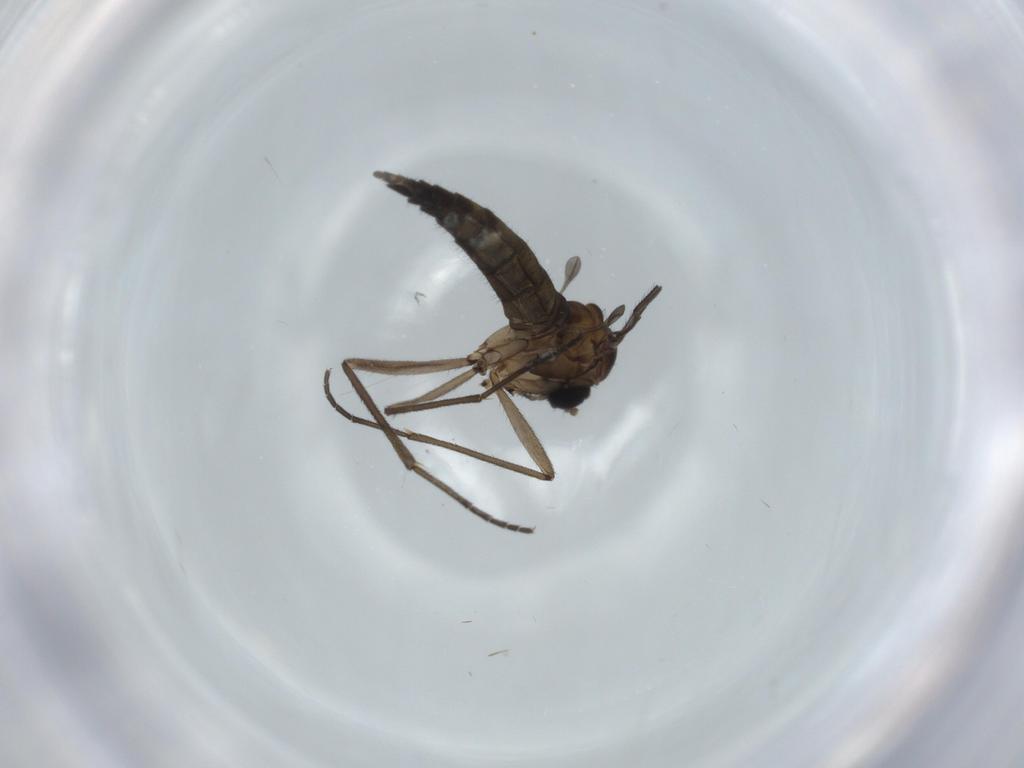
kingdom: Animalia
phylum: Arthropoda
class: Insecta
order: Diptera
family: Sciaridae
